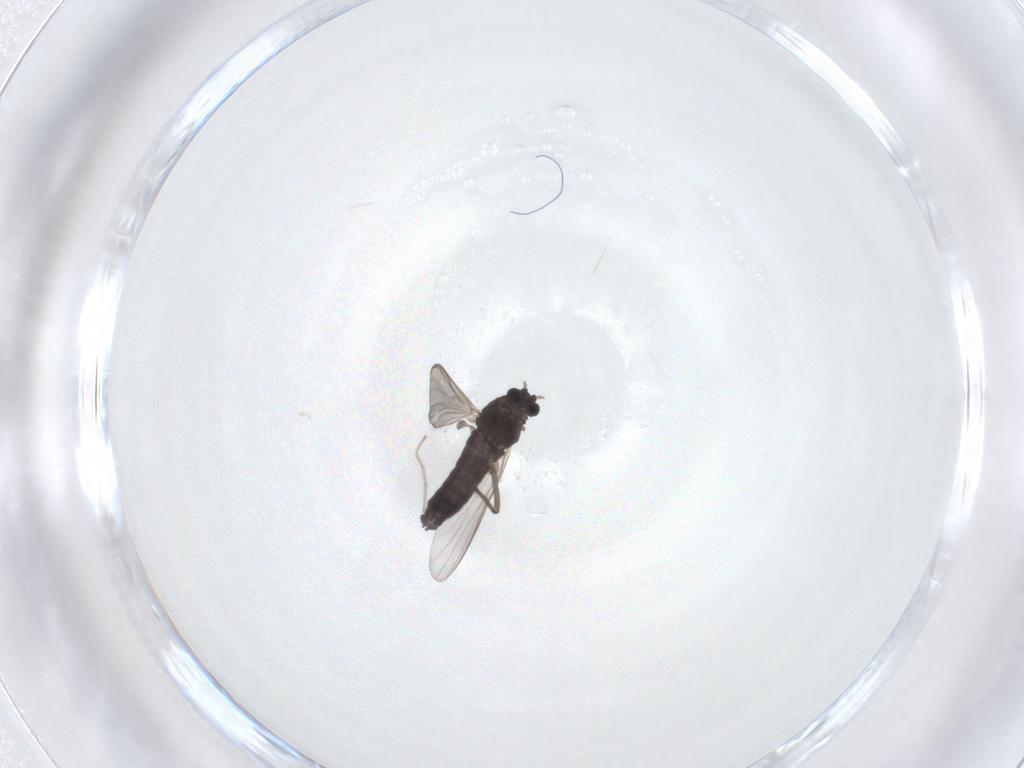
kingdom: Animalia
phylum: Arthropoda
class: Insecta
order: Diptera
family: Chironomidae
